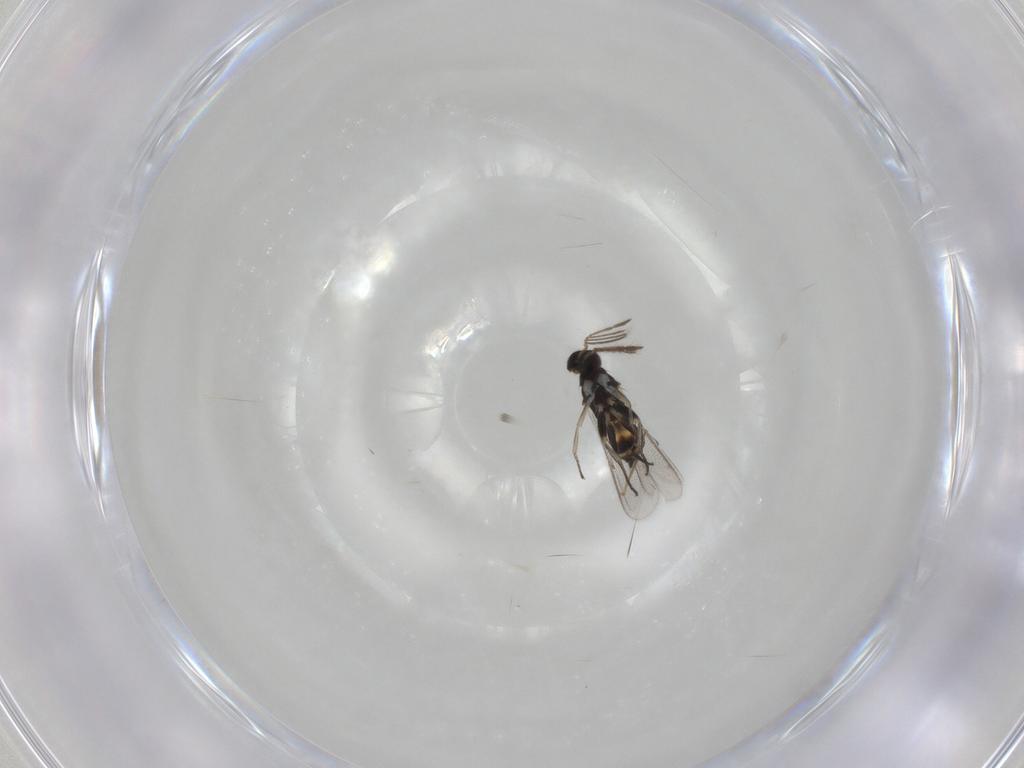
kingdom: Animalia
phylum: Arthropoda
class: Insecta
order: Hymenoptera
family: Eulophidae
